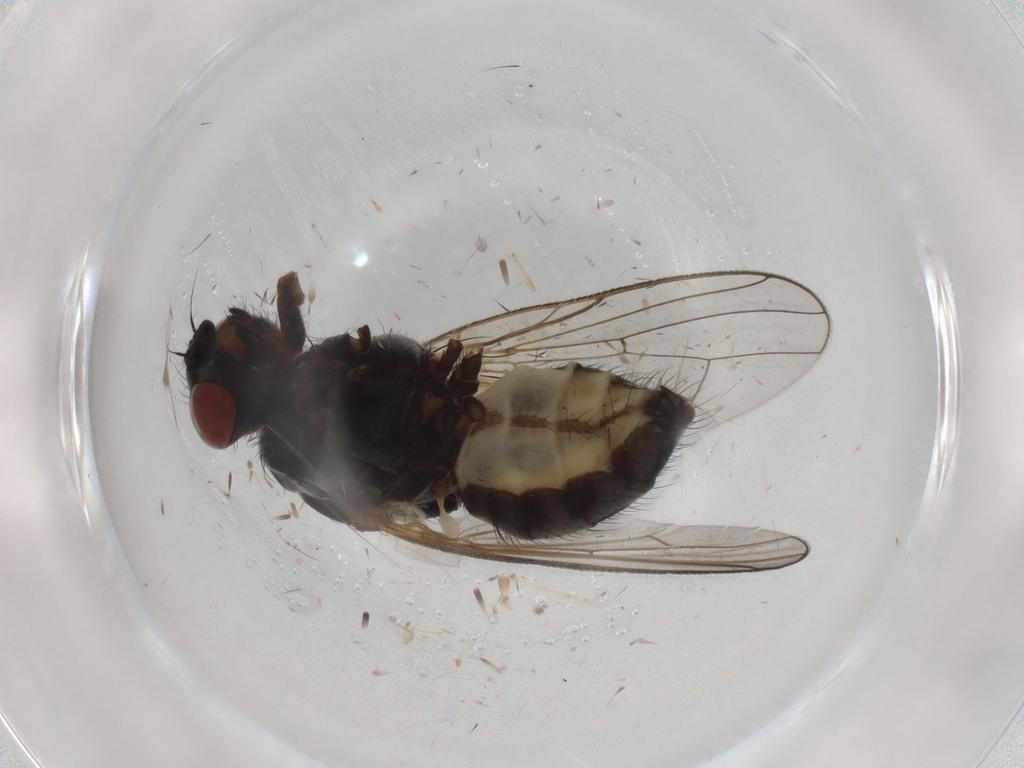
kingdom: Animalia
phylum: Arthropoda
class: Insecta
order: Diptera
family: Anthomyiidae
